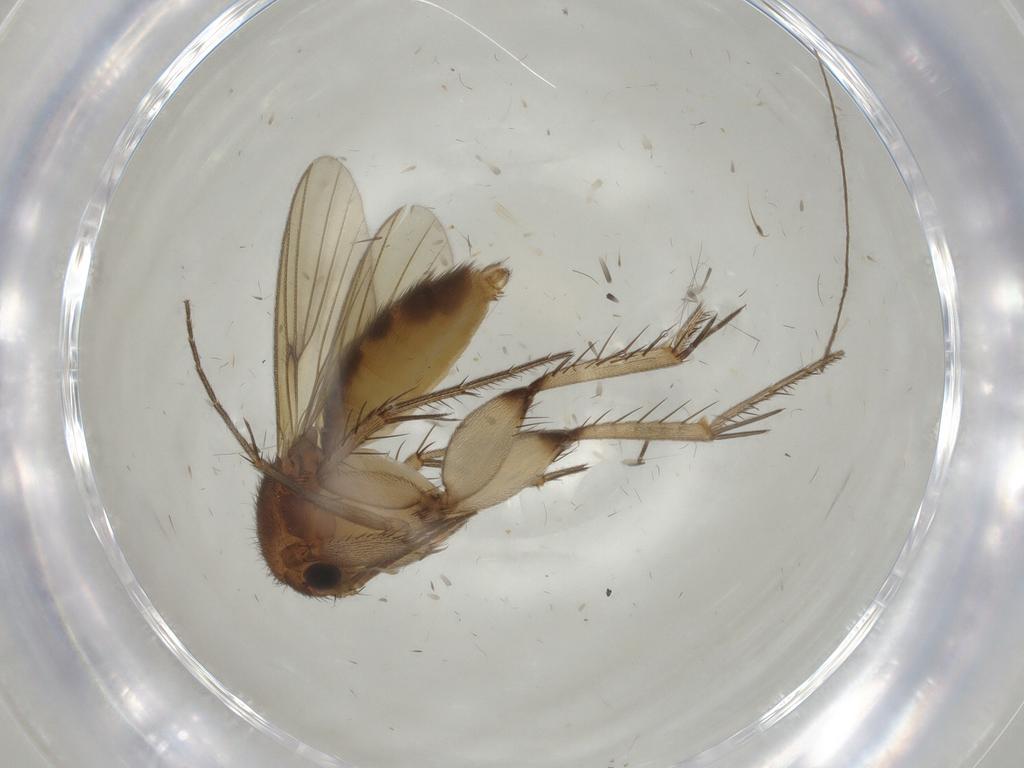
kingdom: Animalia
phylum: Arthropoda
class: Insecta
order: Diptera
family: Mycetophilidae
